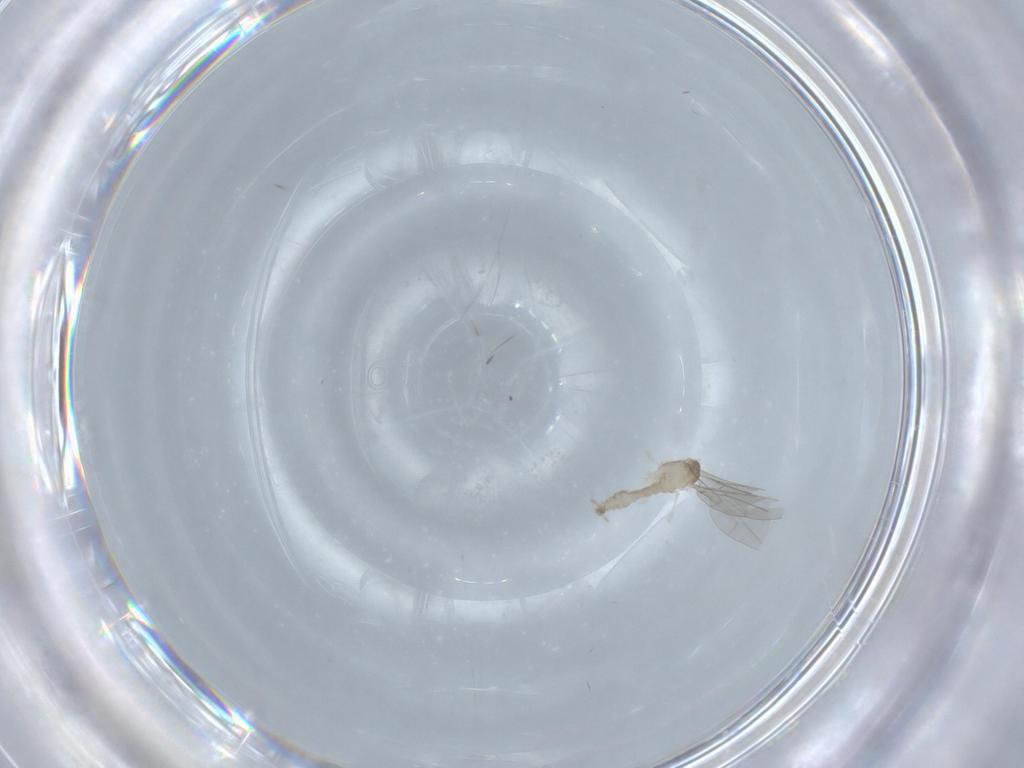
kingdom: Animalia
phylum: Arthropoda
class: Insecta
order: Diptera
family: Cecidomyiidae
